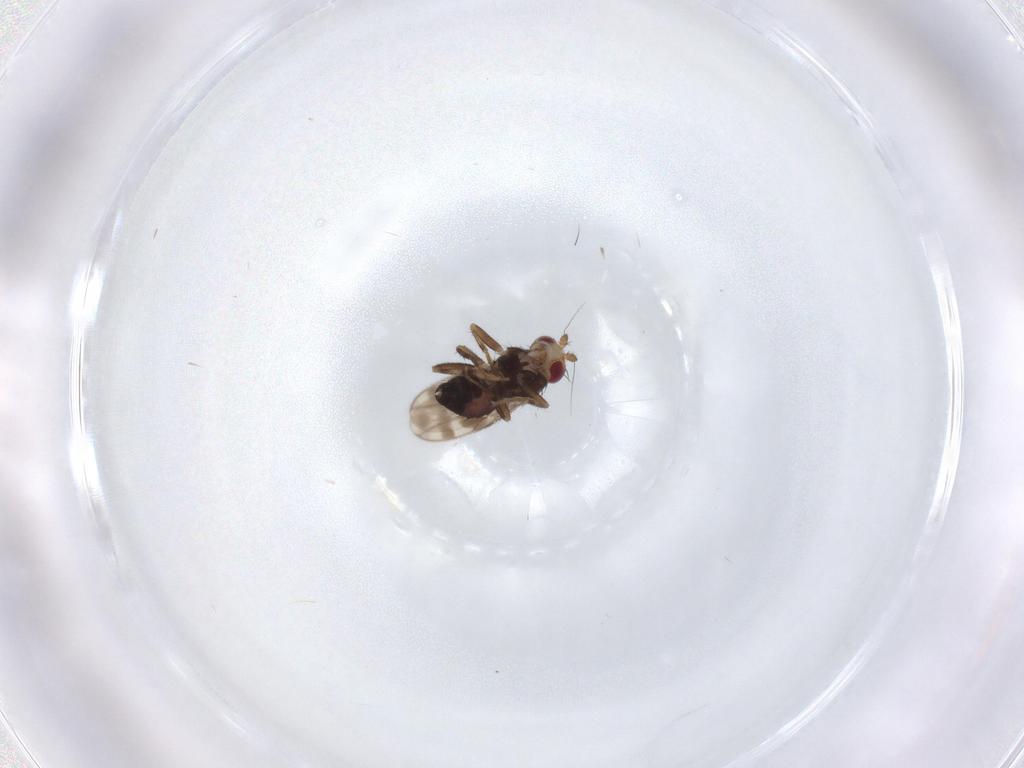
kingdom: Animalia
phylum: Arthropoda
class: Insecta
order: Diptera
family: Sphaeroceridae
